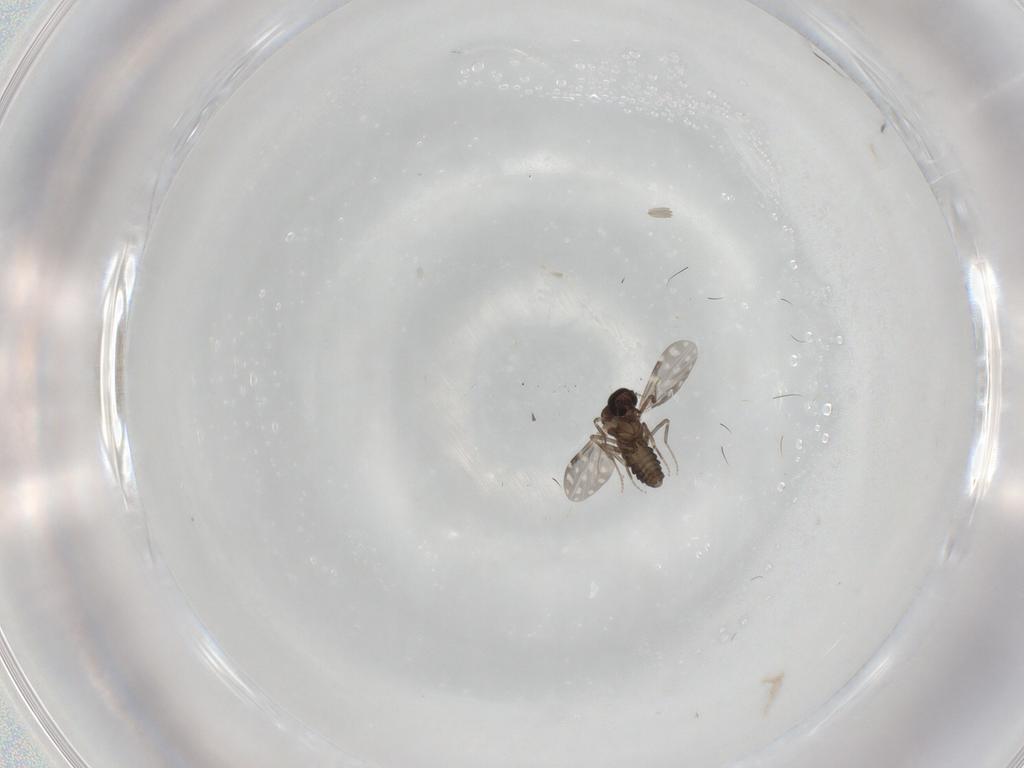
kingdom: Animalia
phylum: Arthropoda
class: Insecta
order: Diptera
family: Ceratopogonidae
